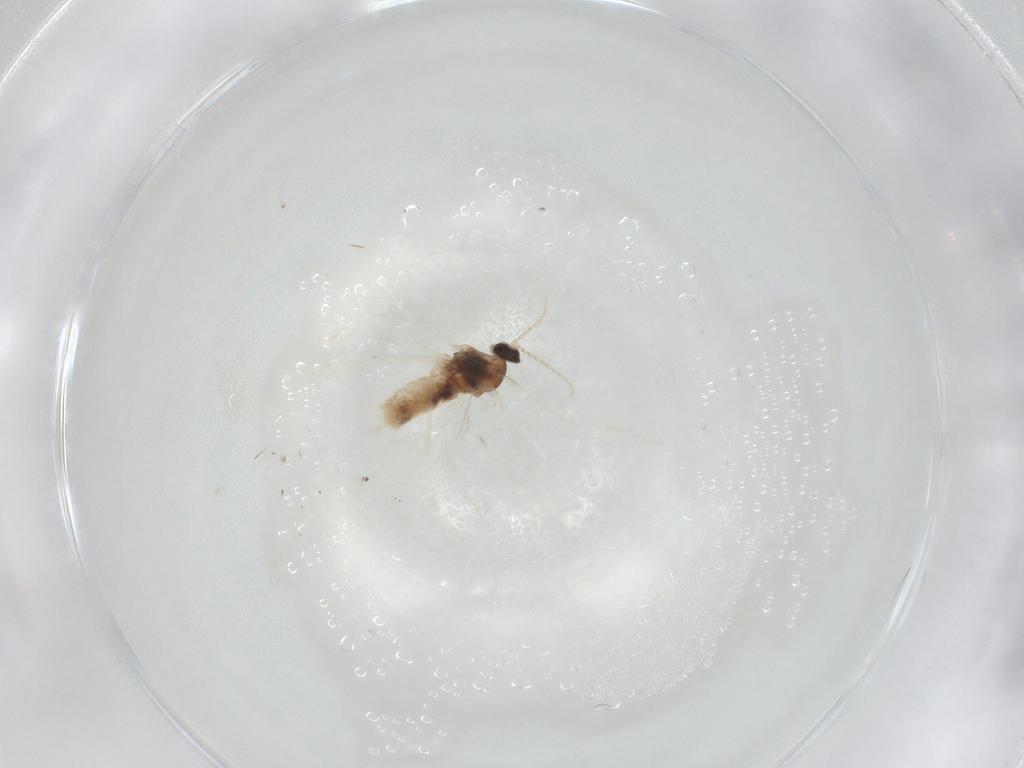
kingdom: Animalia
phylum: Arthropoda
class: Insecta
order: Diptera
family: Cecidomyiidae
